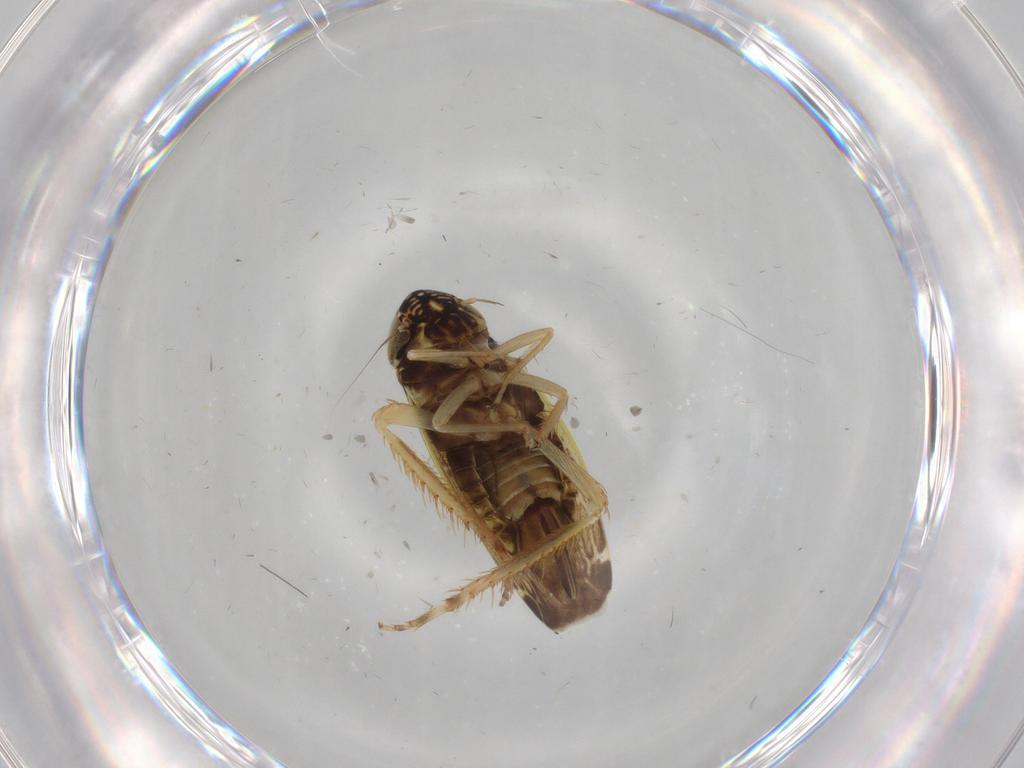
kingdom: Animalia
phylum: Arthropoda
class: Insecta
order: Hemiptera
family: Cicadellidae
